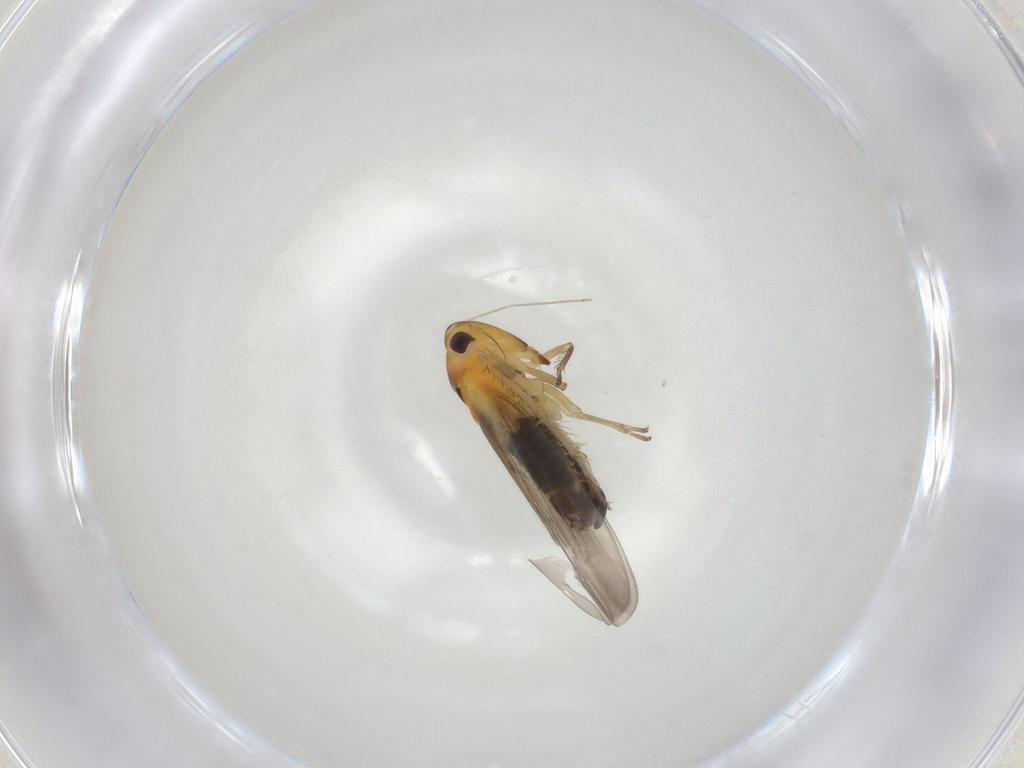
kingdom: Animalia
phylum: Arthropoda
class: Insecta
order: Hemiptera
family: Cicadellidae
